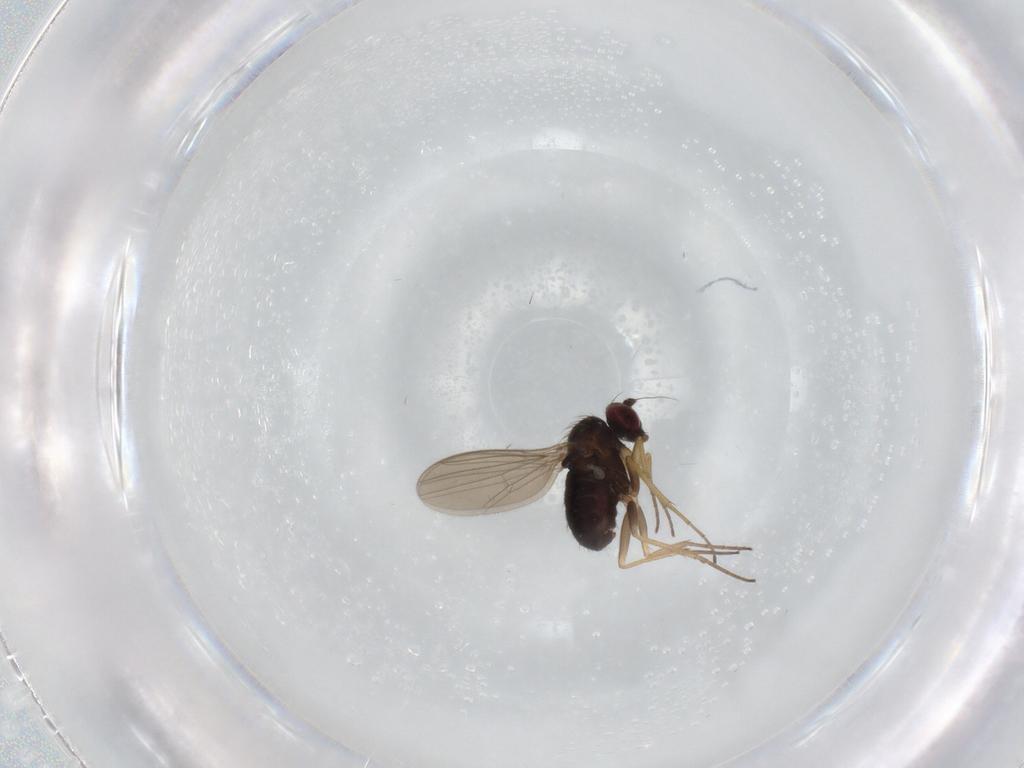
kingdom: Animalia
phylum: Arthropoda
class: Insecta
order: Diptera
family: Dolichopodidae
